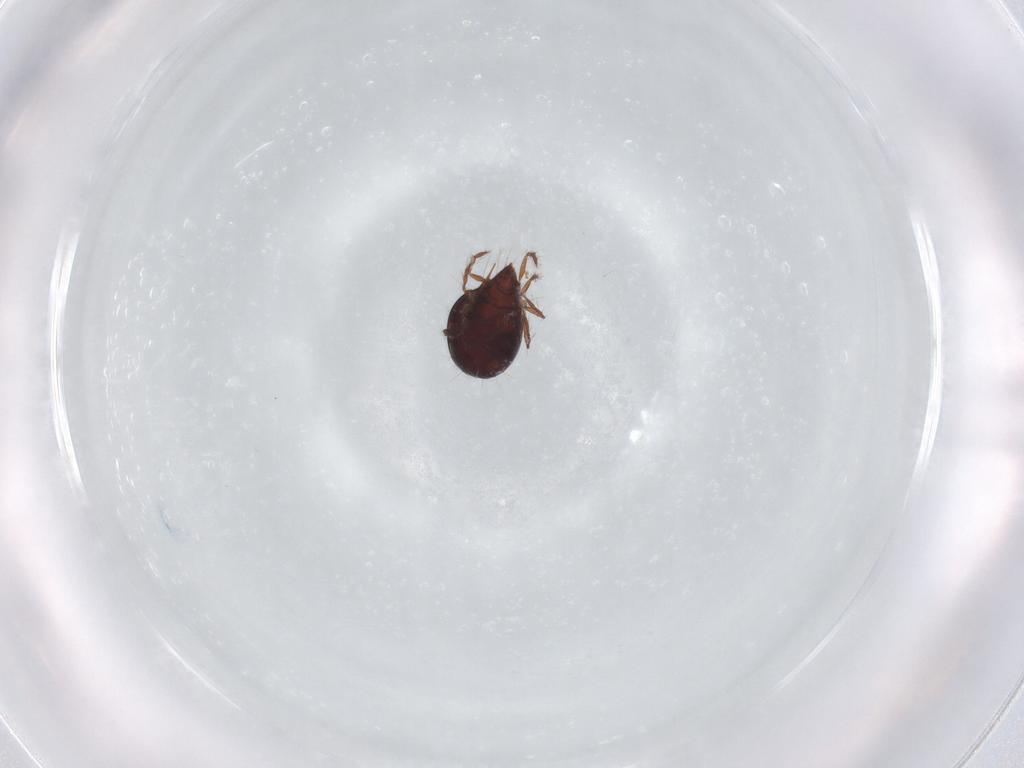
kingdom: Animalia
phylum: Arthropoda
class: Arachnida
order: Sarcoptiformes
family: Ceratoppiidae
